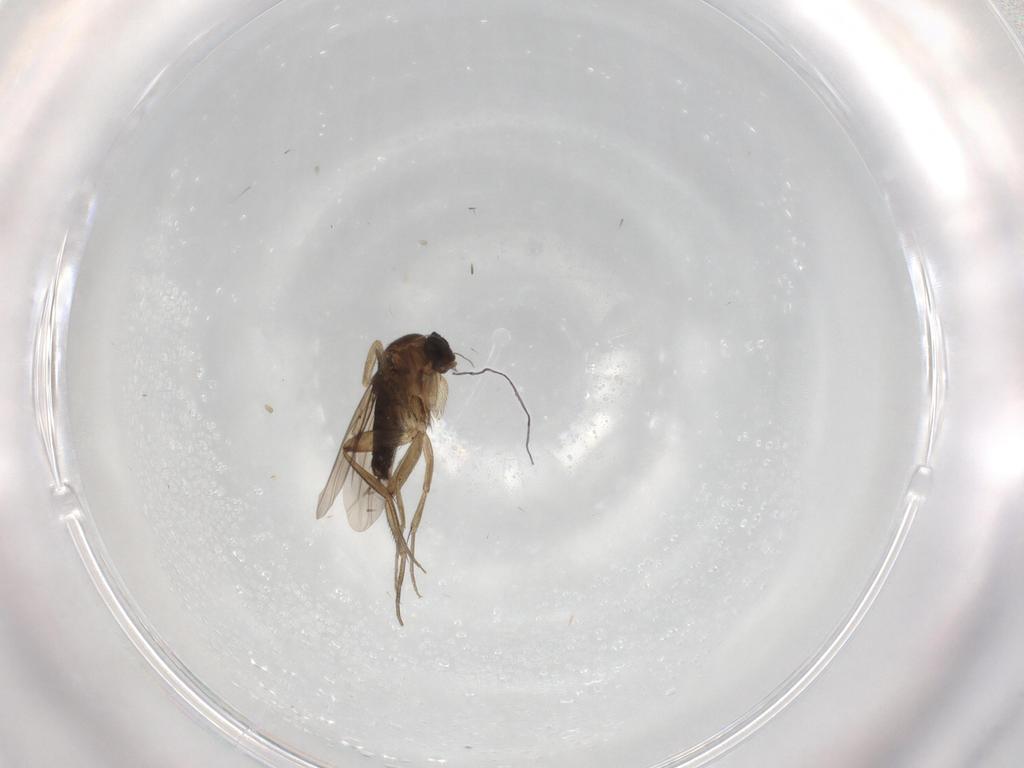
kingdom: Animalia
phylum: Arthropoda
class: Insecta
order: Diptera
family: Phoridae
